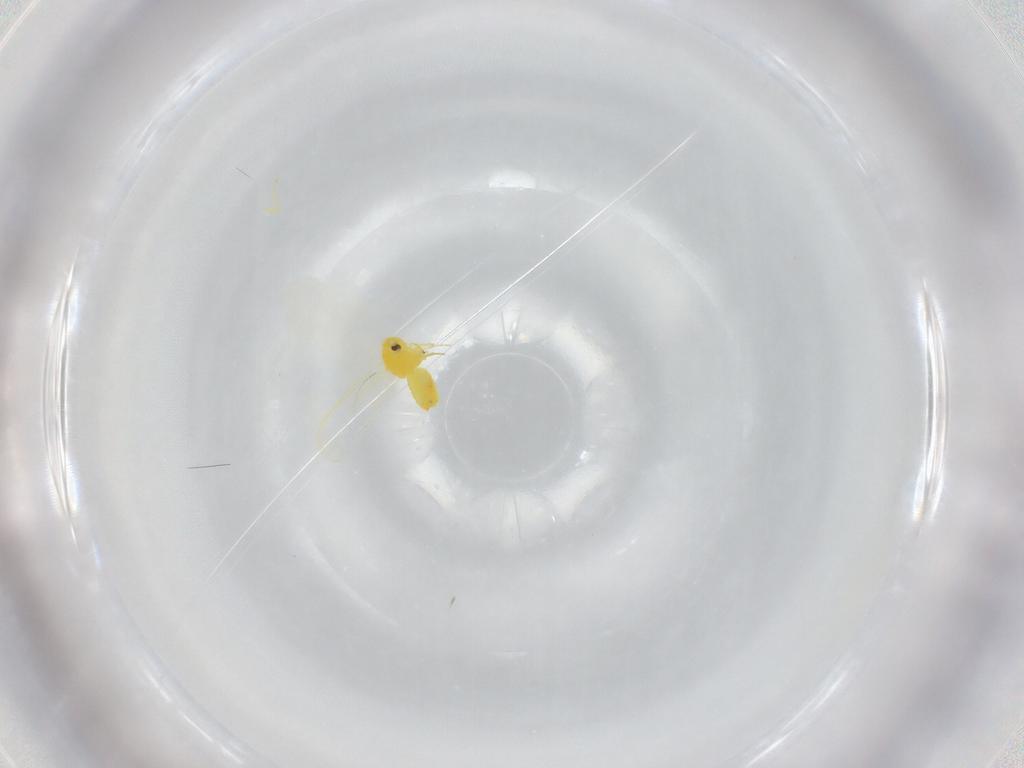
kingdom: Animalia
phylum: Arthropoda
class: Insecta
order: Hemiptera
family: Aleyrodidae
